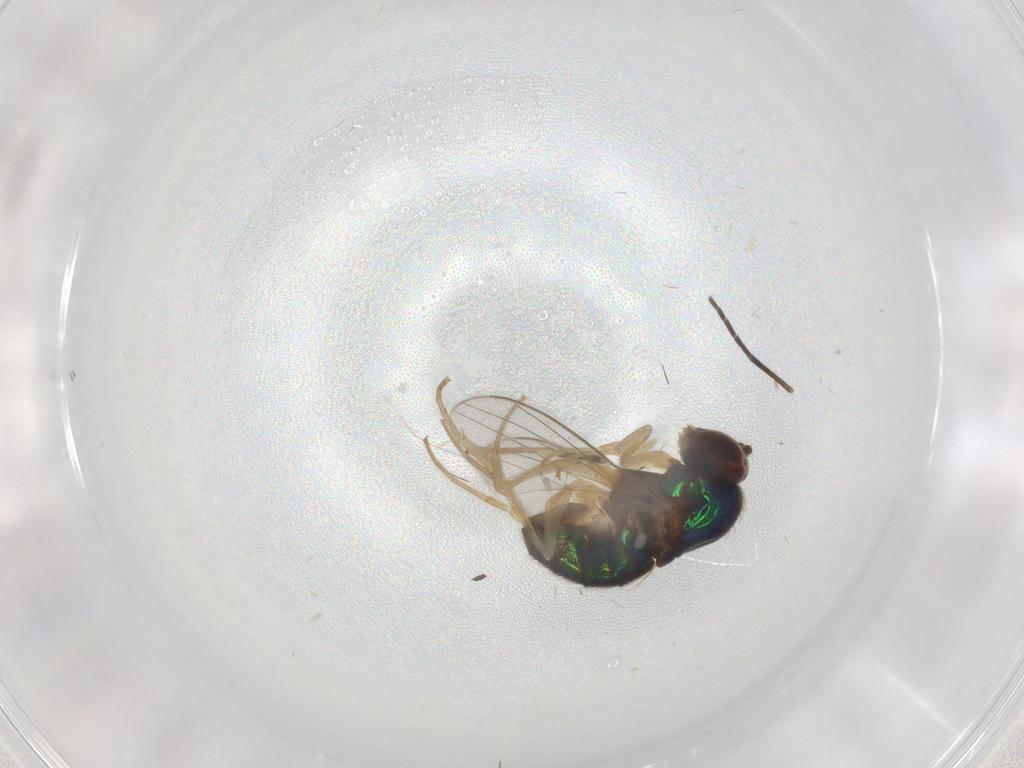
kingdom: Animalia
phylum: Arthropoda
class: Insecta
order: Diptera
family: Dolichopodidae
